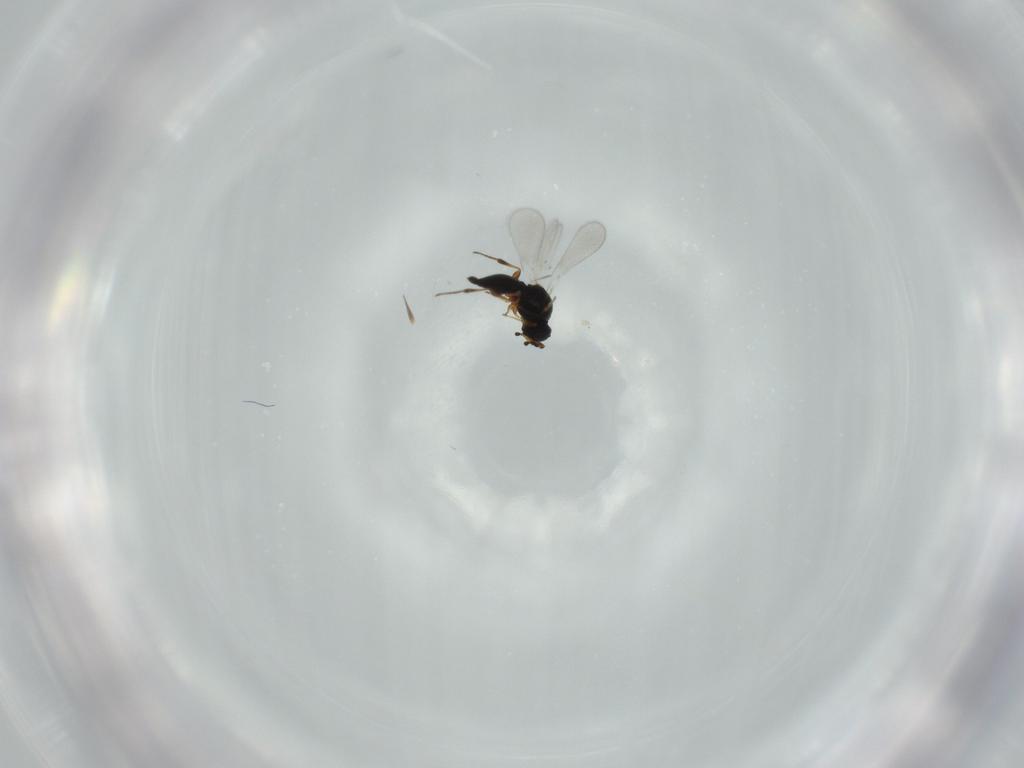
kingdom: Animalia
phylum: Arthropoda
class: Insecta
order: Hymenoptera
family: Platygastridae
